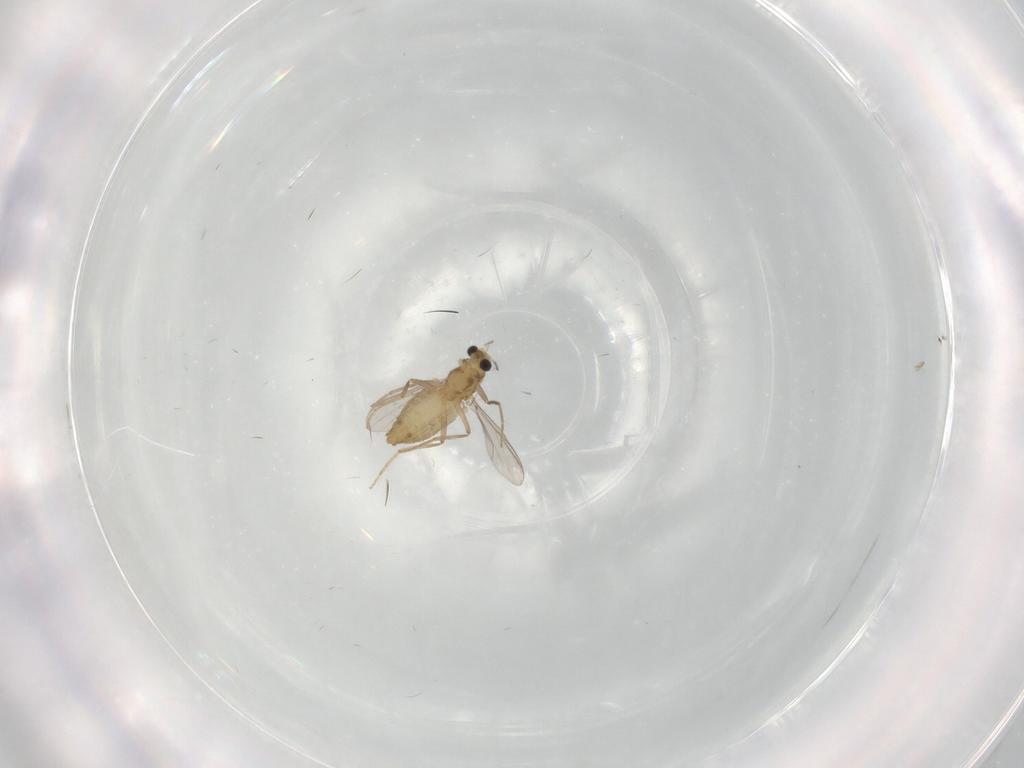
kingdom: Animalia
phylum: Arthropoda
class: Insecta
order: Diptera
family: Chironomidae
